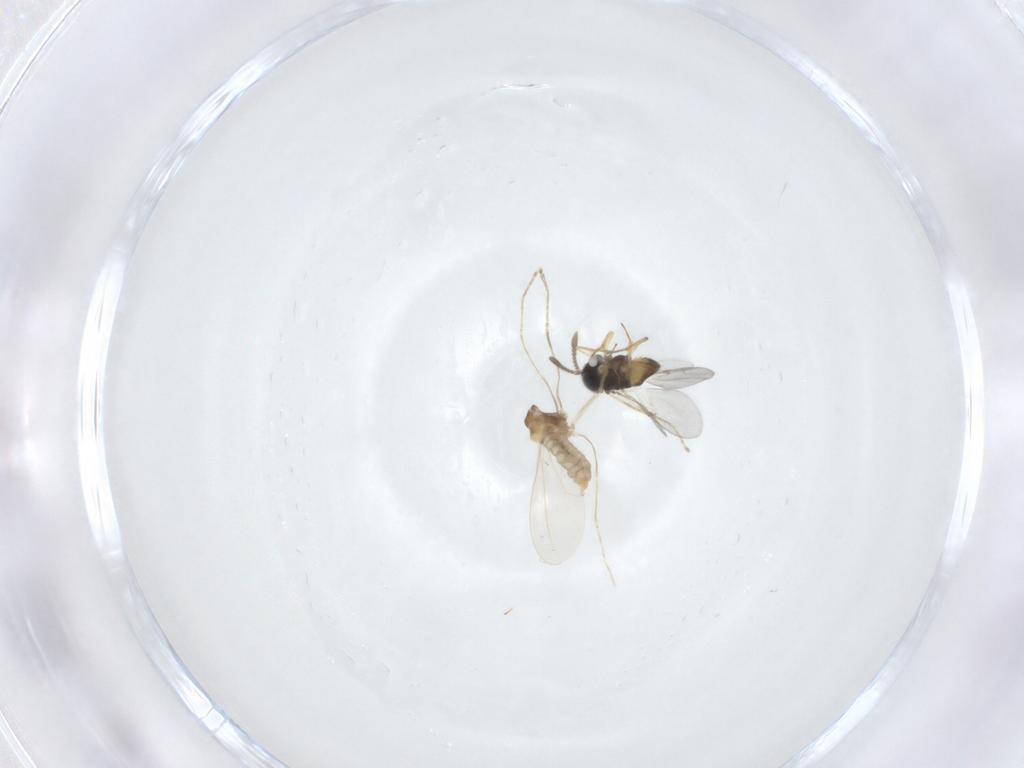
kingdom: Animalia
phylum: Arthropoda
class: Insecta
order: Diptera
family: Cecidomyiidae
